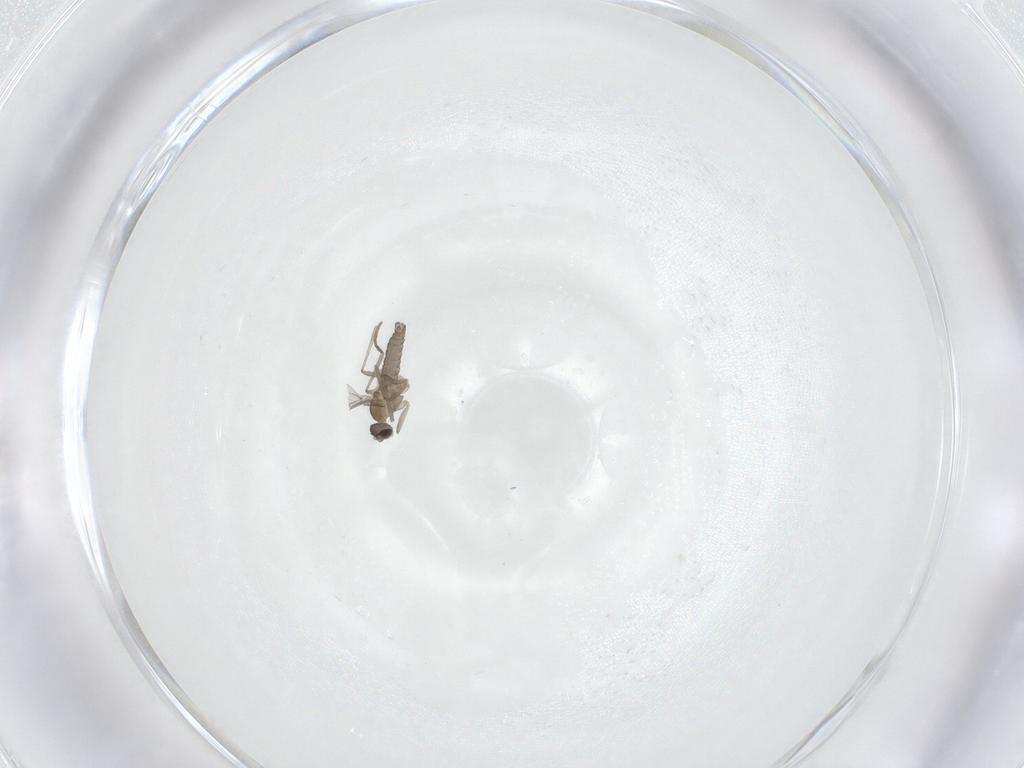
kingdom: Animalia
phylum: Arthropoda
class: Insecta
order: Diptera
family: Cecidomyiidae
